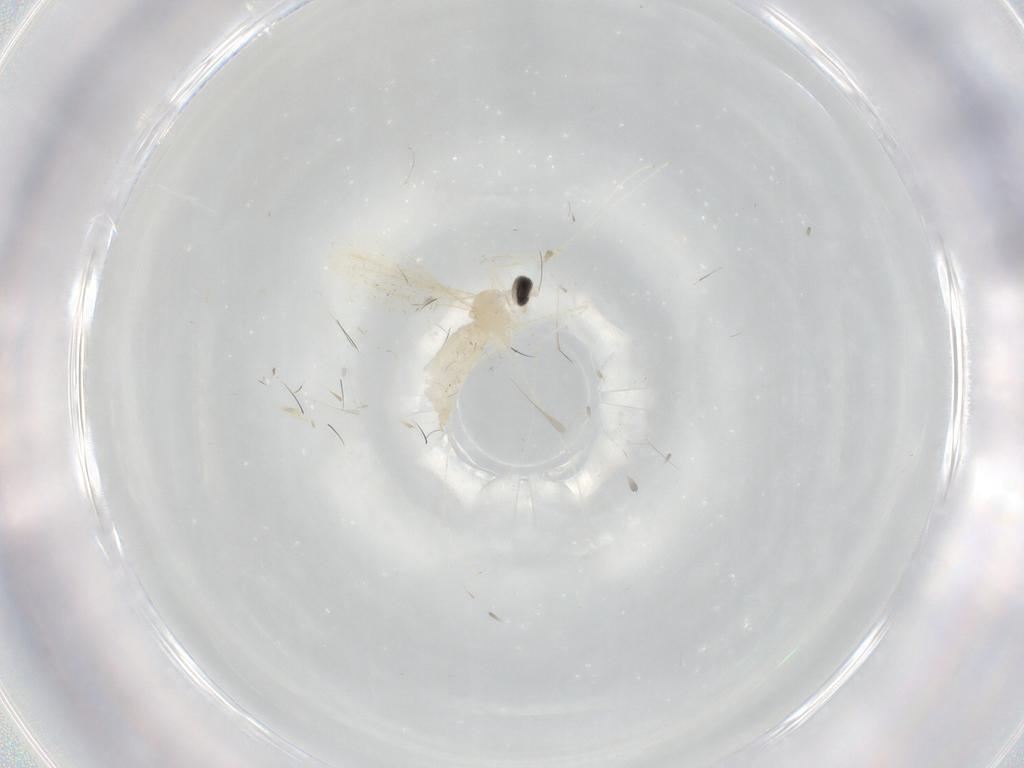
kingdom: Animalia
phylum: Arthropoda
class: Insecta
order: Diptera
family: Cecidomyiidae
